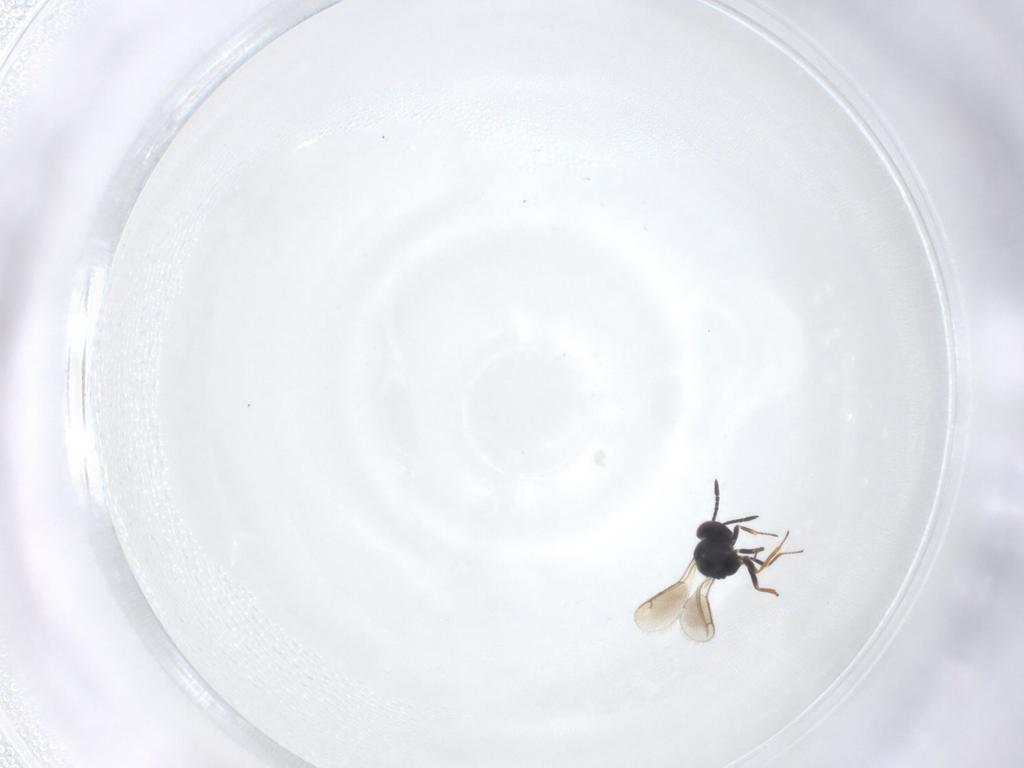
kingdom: Animalia
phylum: Arthropoda
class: Insecta
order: Hymenoptera
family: Pteromalidae
